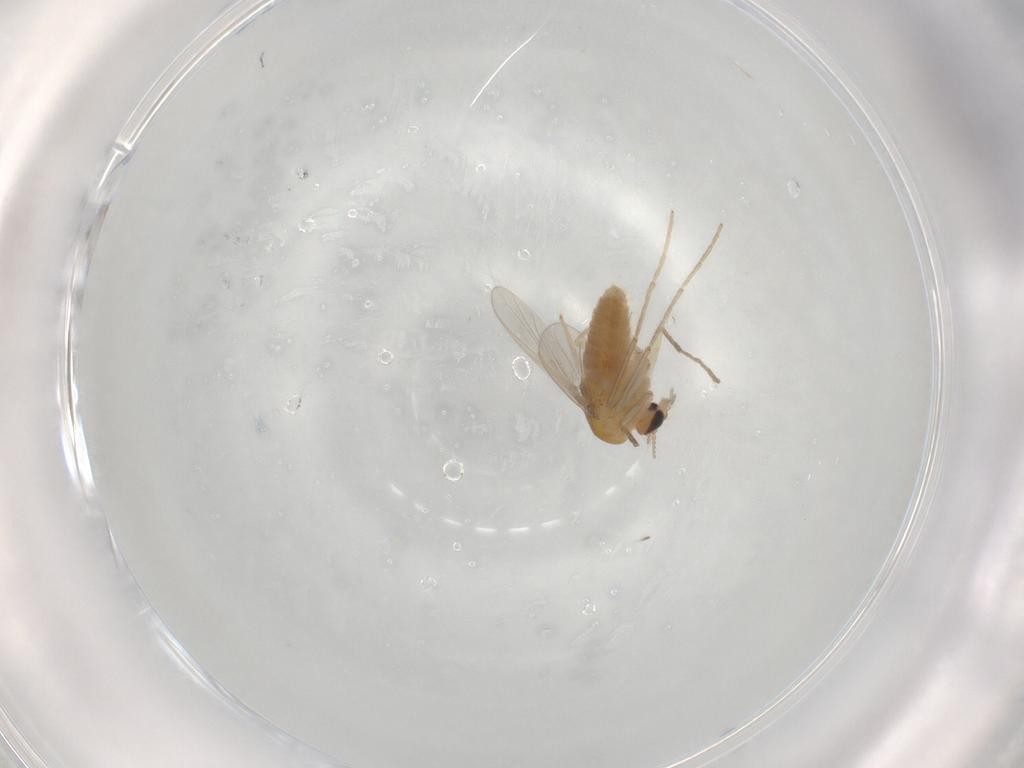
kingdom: Animalia
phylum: Arthropoda
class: Insecta
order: Diptera
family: Chironomidae
